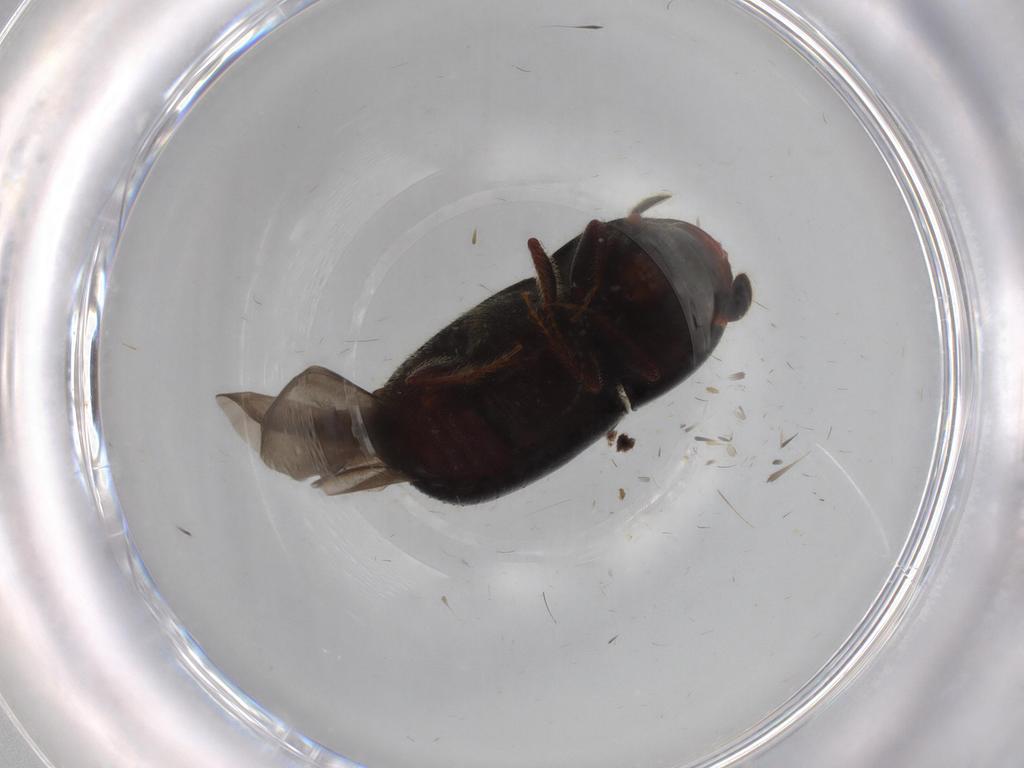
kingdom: Animalia
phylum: Arthropoda
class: Insecta
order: Coleoptera
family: Curculionidae
